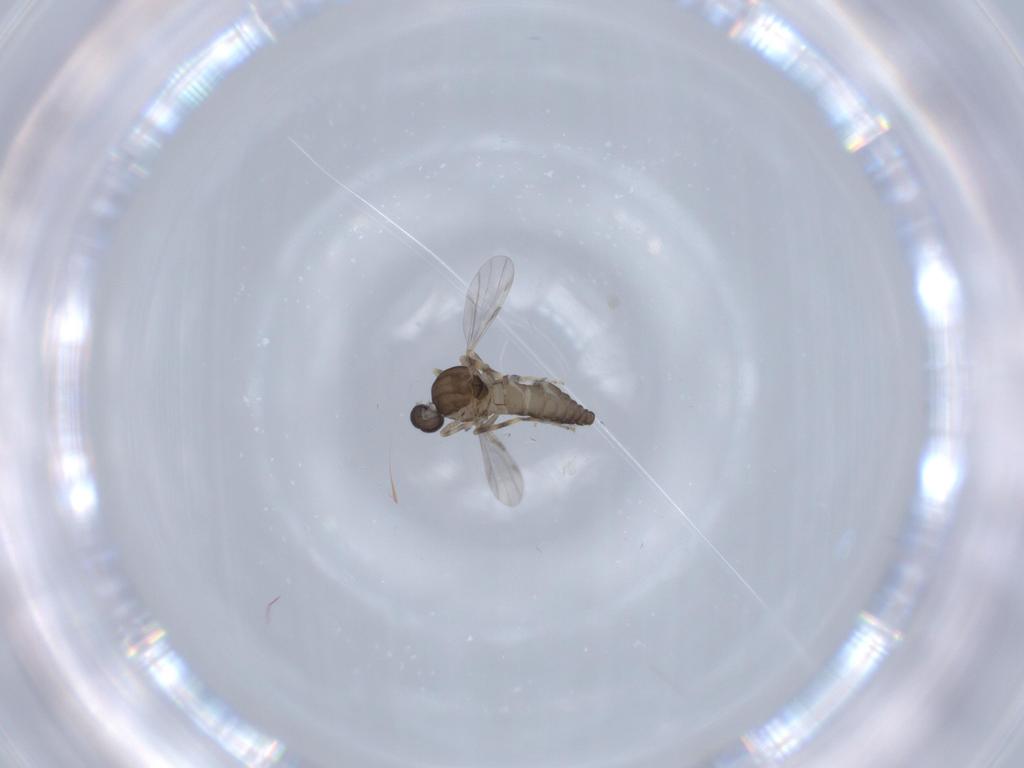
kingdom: Animalia
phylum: Arthropoda
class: Insecta
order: Diptera
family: Ceratopogonidae
